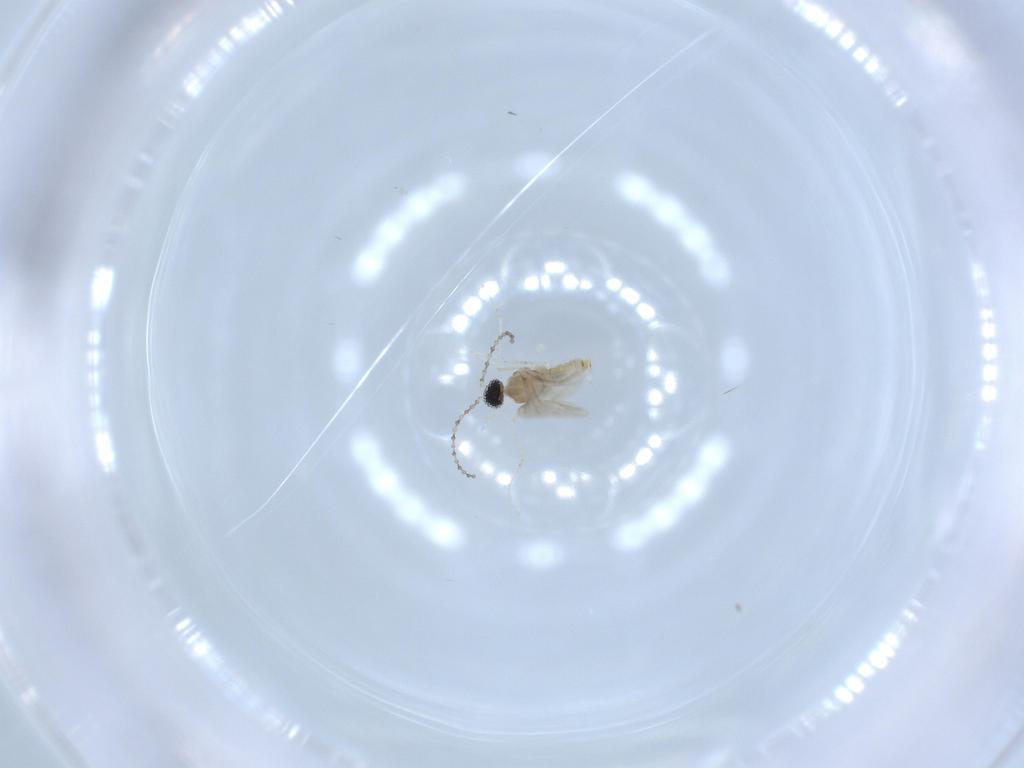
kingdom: Animalia
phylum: Arthropoda
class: Insecta
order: Diptera
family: Cecidomyiidae
